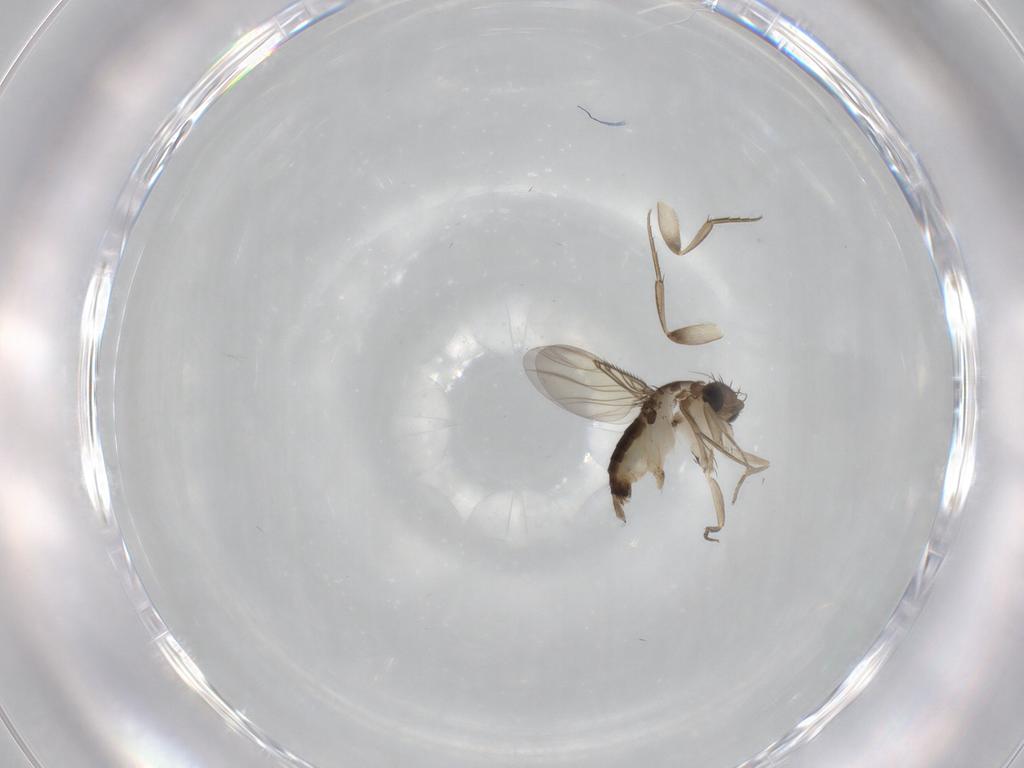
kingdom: Animalia
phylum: Arthropoda
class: Insecta
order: Diptera
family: Phoridae
